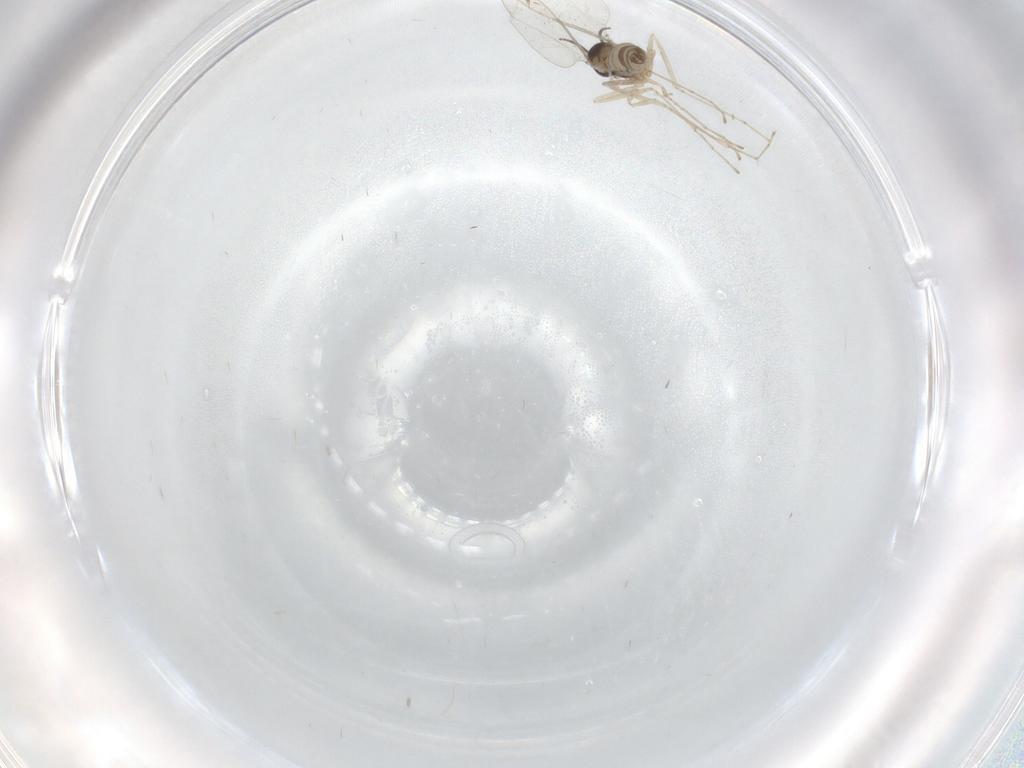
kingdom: Animalia
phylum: Arthropoda
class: Insecta
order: Diptera
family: Cecidomyiidae
